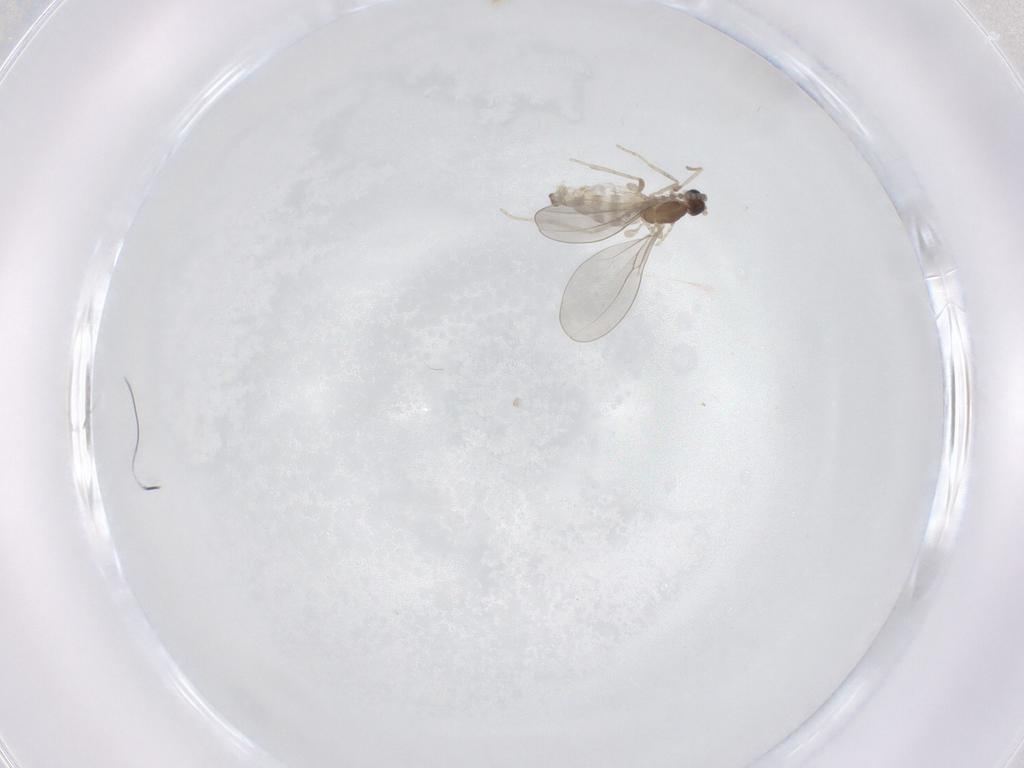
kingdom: Animalia
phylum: Arthropoda
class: Insecta
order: Diptera
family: Cecidomyiidae
